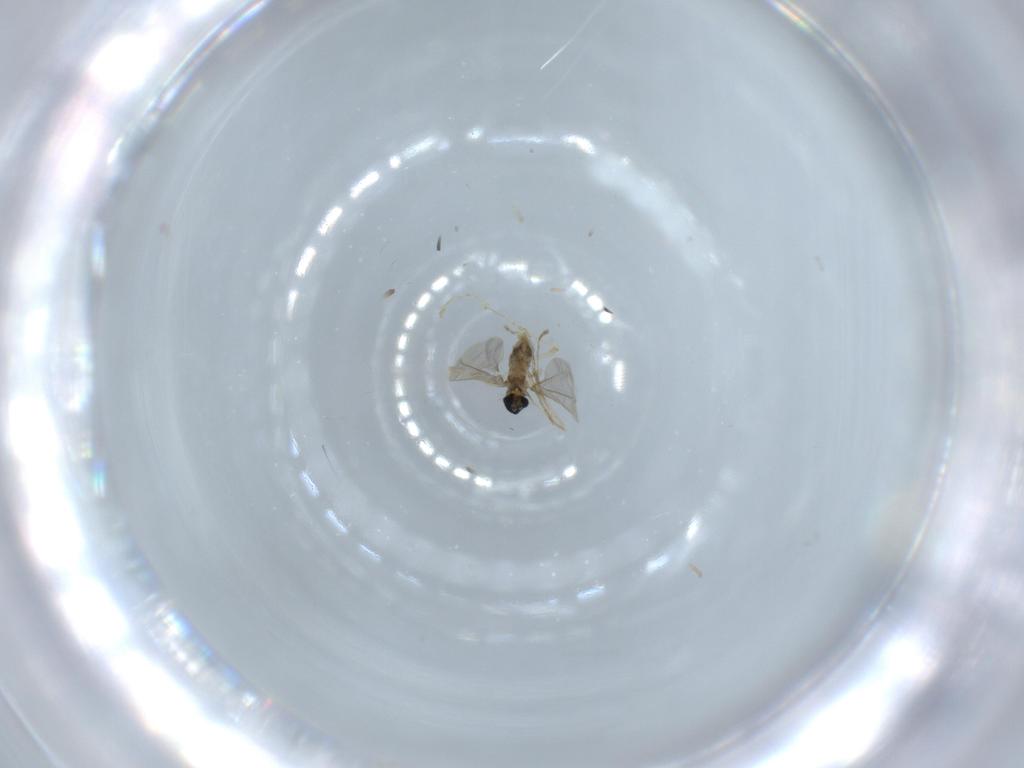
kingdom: Animalia
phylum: Arthropoda
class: Insecta
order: Diptera
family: Cecidomyiidae
